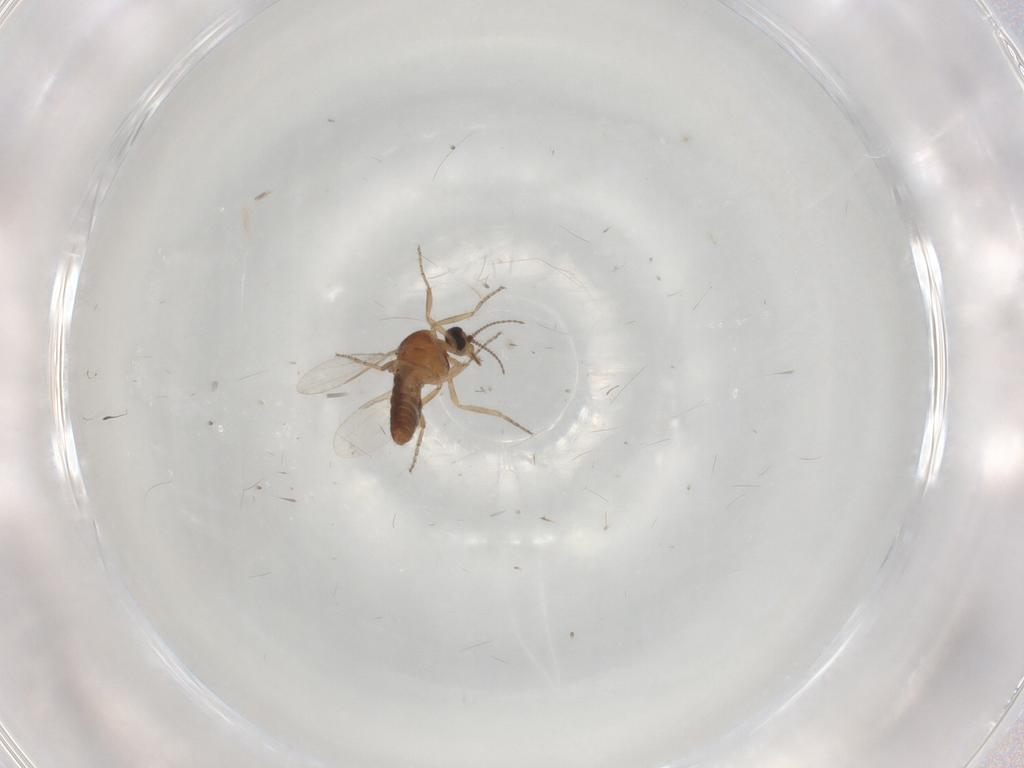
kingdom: Animalia
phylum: Arthropoda
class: Insecta
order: Diptera
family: Ceratopogonidae
